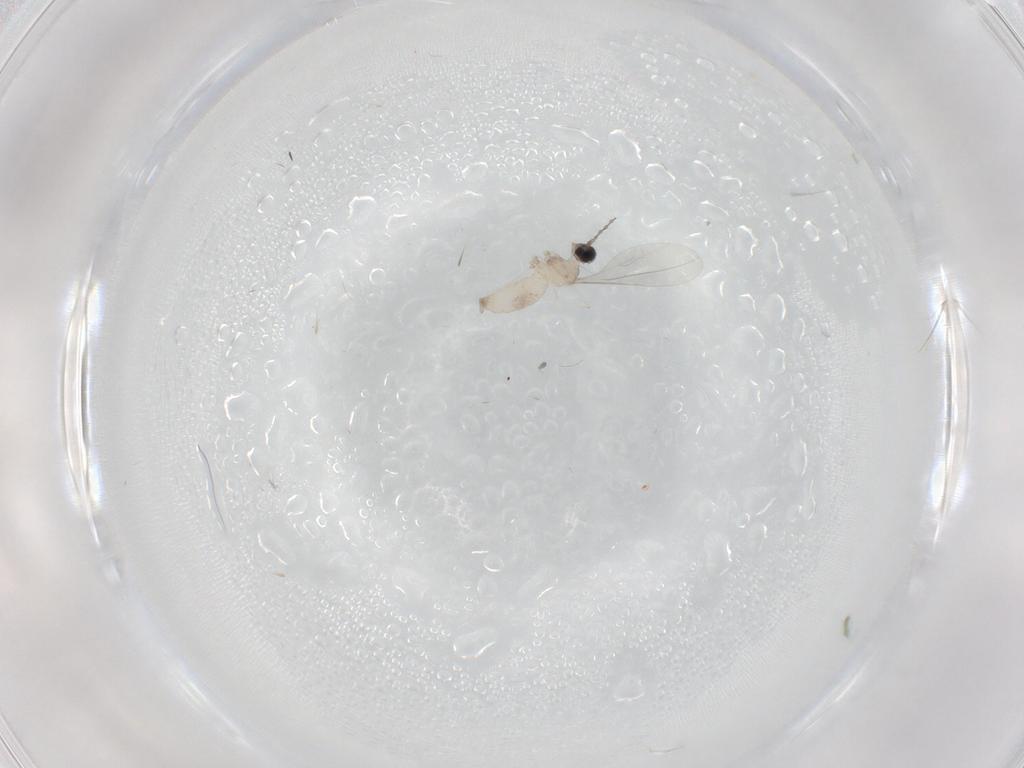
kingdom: Animalia
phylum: Arthropoda
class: Insecta
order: Diptera
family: Cecidomyiidae
